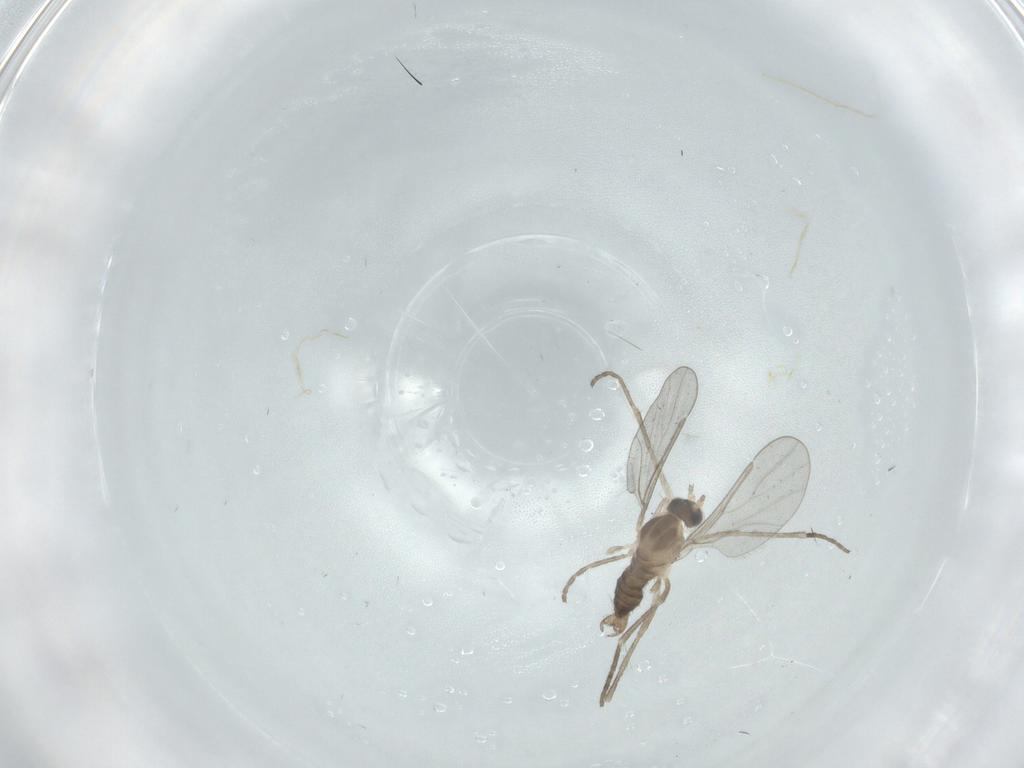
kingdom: Animalia
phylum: Arthropoda
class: Insecta
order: Diptera
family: Cecidomyiidae
